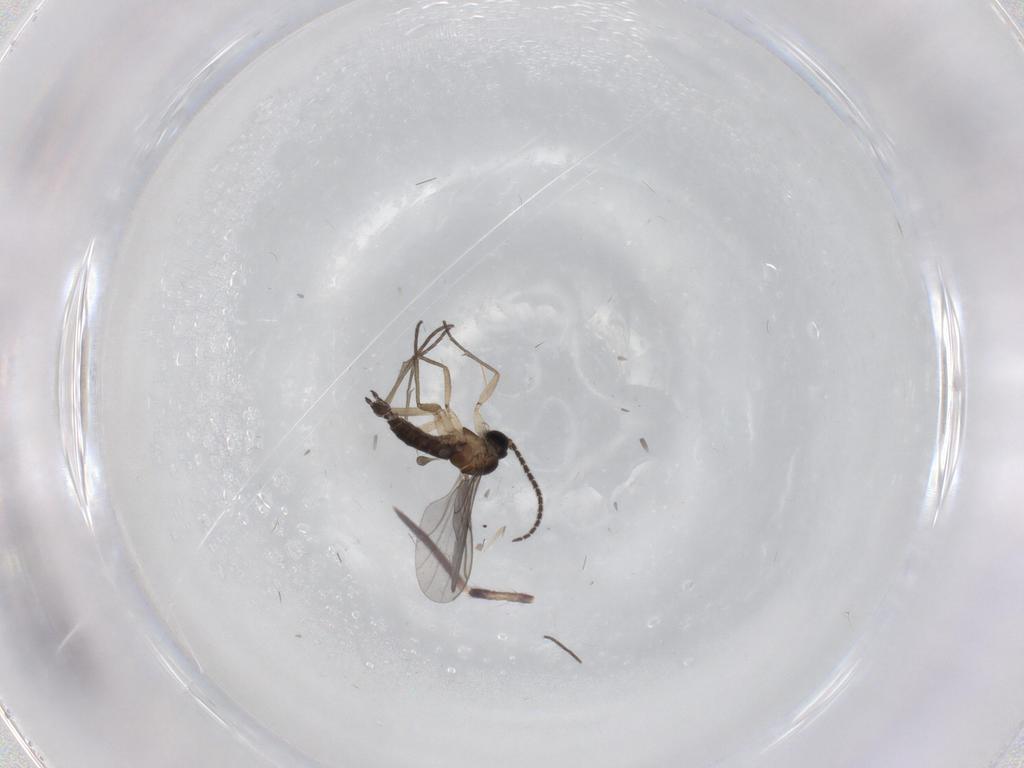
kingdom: Animalia
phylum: Arthropoda
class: Insecta
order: Diptera
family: Sciaridae
